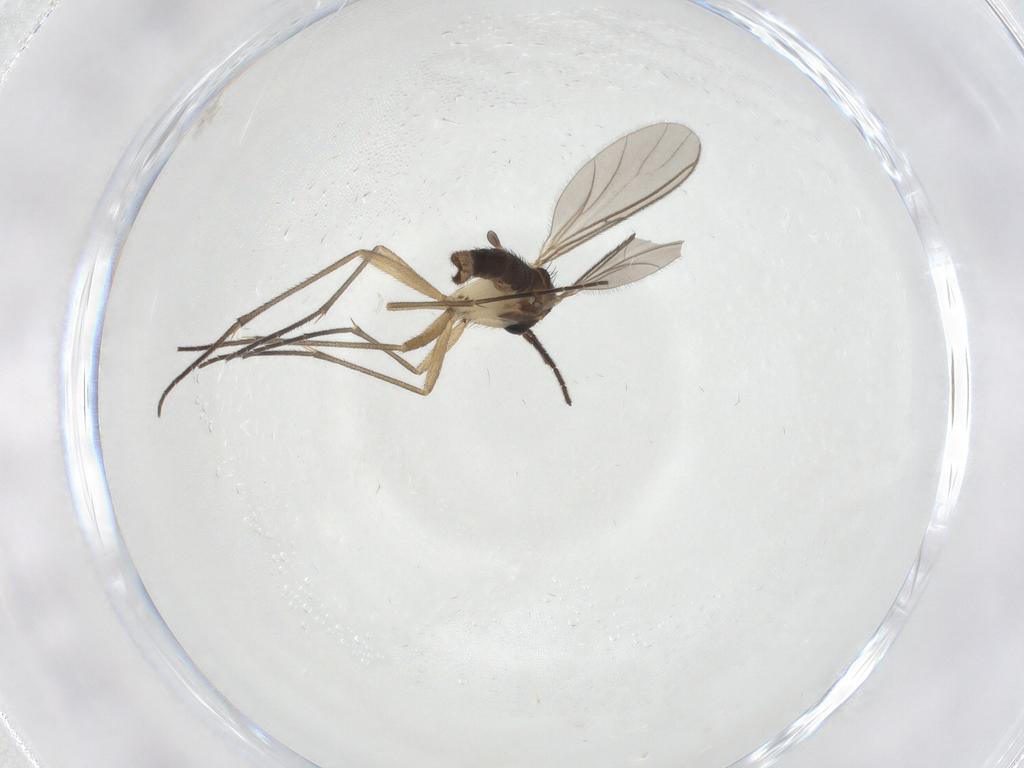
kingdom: Animalia
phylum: Arthropoda
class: Insecta
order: Diptera
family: Sciaridae
